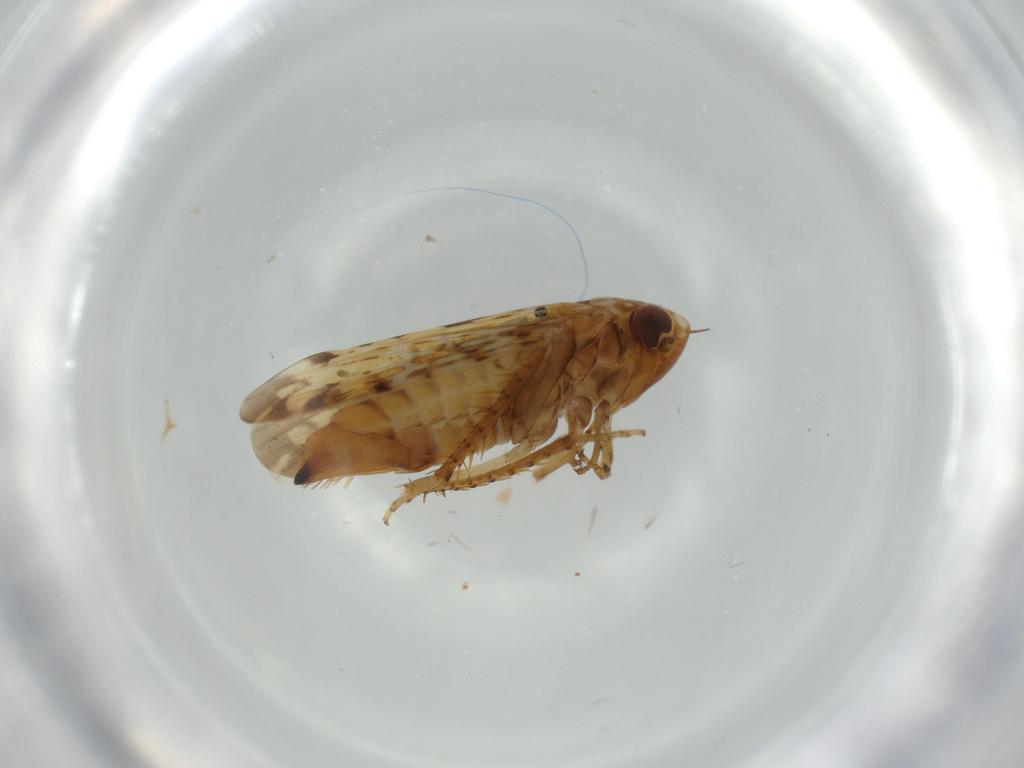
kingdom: Animalia
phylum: Arthropoda
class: Insecta
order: Hemiptera
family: Cicadellidae
